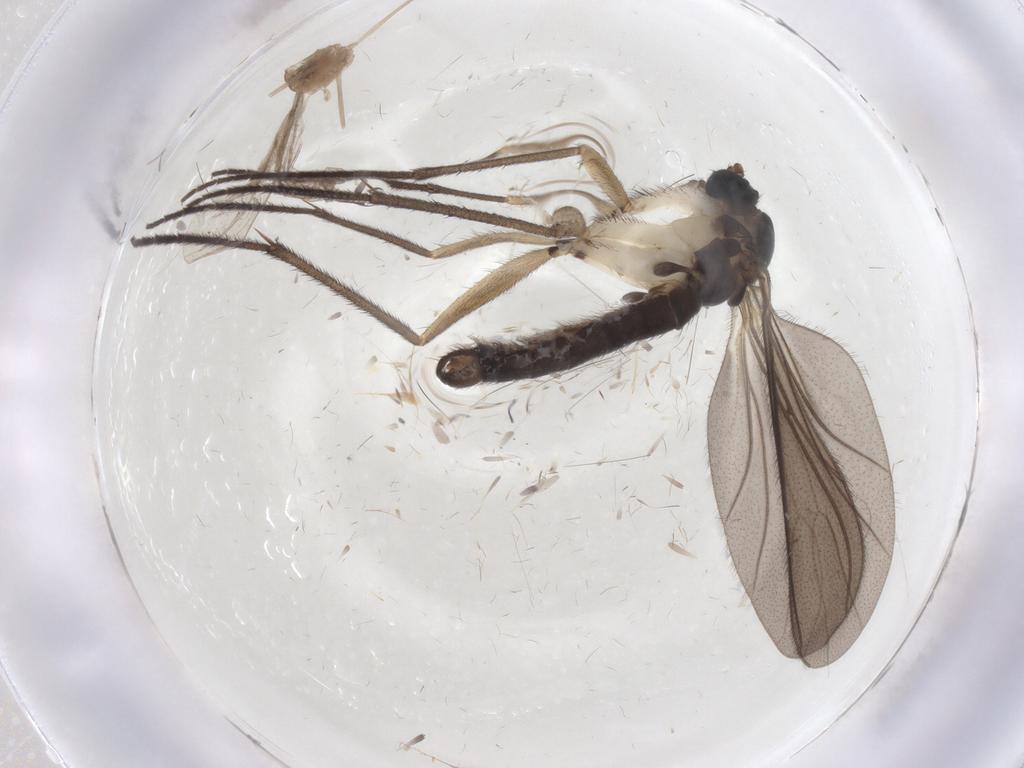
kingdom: Animalia
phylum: Arthropoda
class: Insecta
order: Diptera
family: Sciaridae
